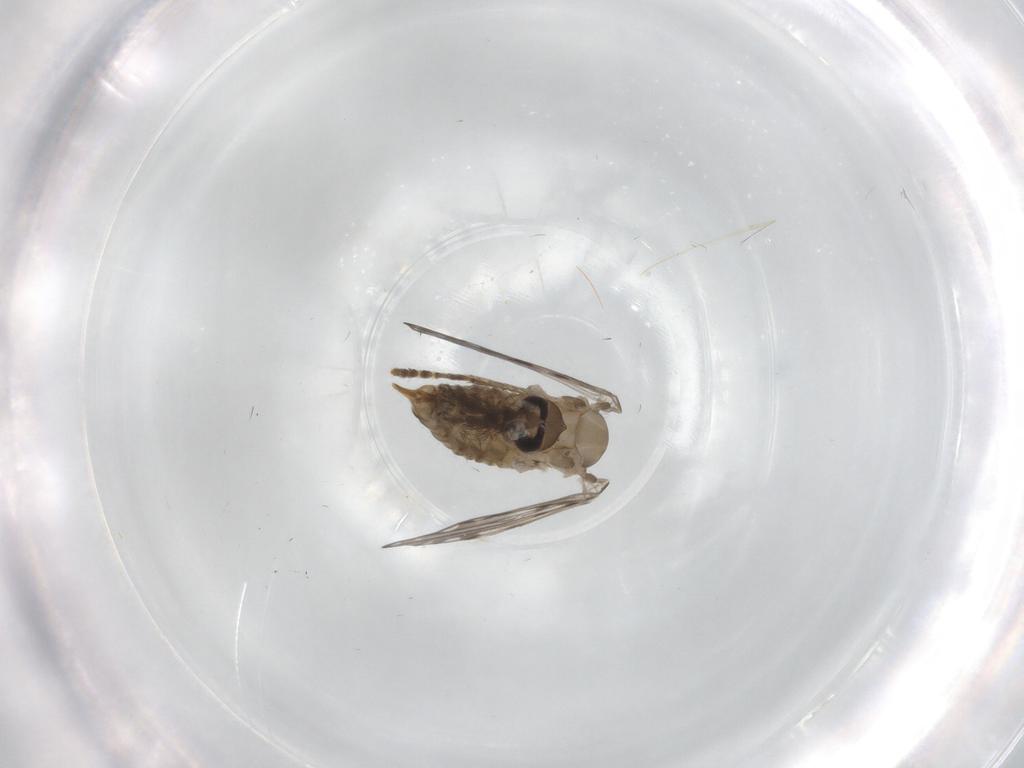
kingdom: Animalia
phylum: Arthropoda
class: Insecta
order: Diptera
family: Psychodidae
